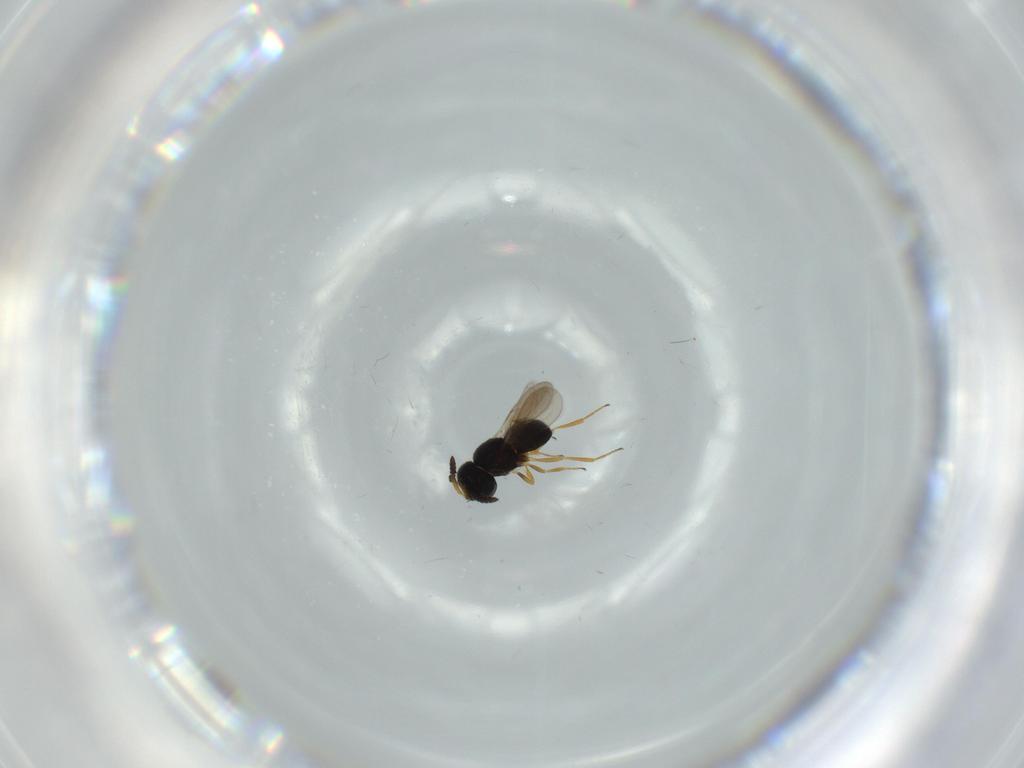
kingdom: Animalia
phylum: Arthropoda
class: Insecta
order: Hymenoptera
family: Scelionidae
